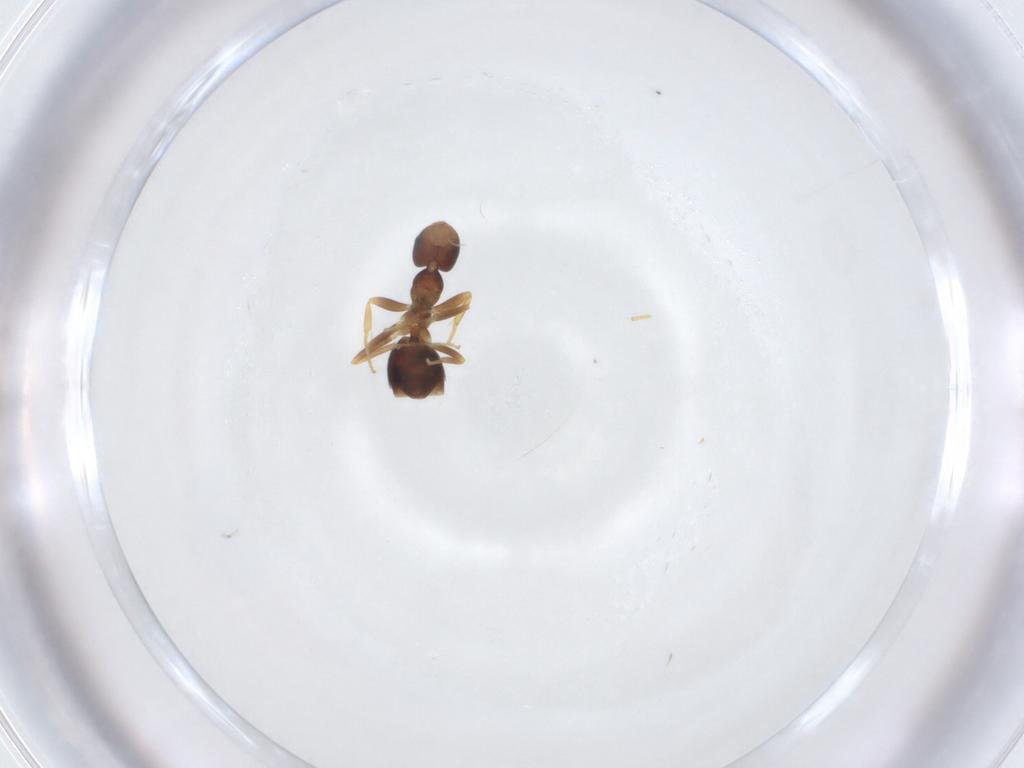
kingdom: Animalia
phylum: Arthropoda
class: Insecta
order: Hymenoptera
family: Formicidae
